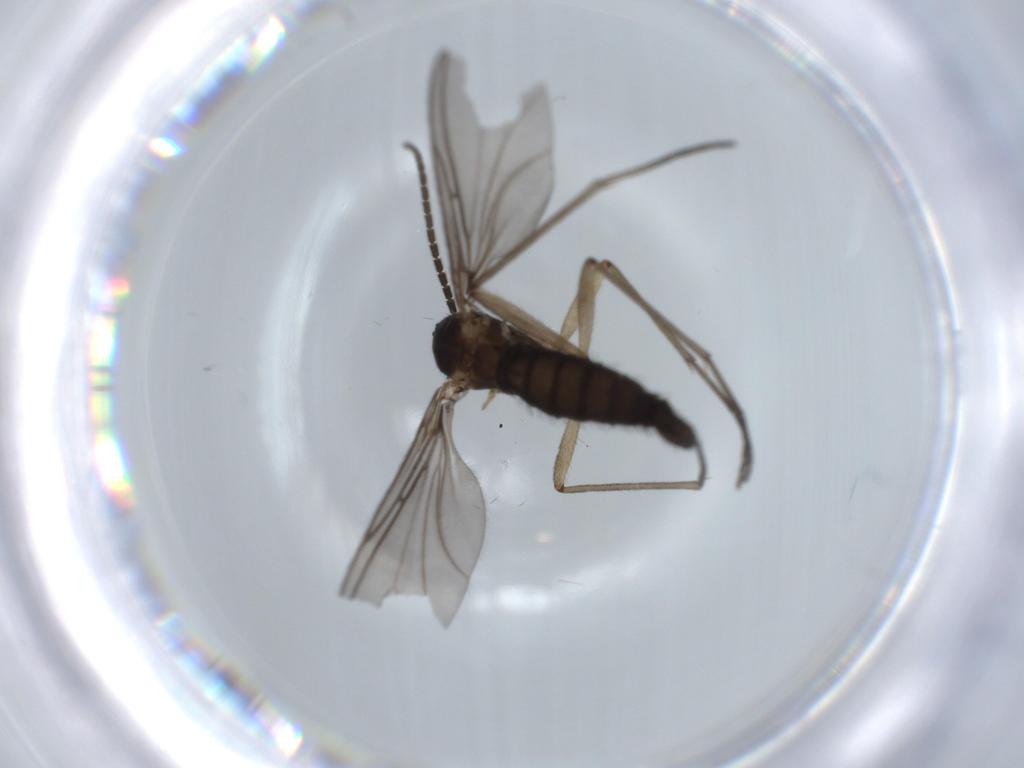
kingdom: Animalia
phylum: Arthropoda
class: Insecta
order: Diptera
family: Sciaridae
